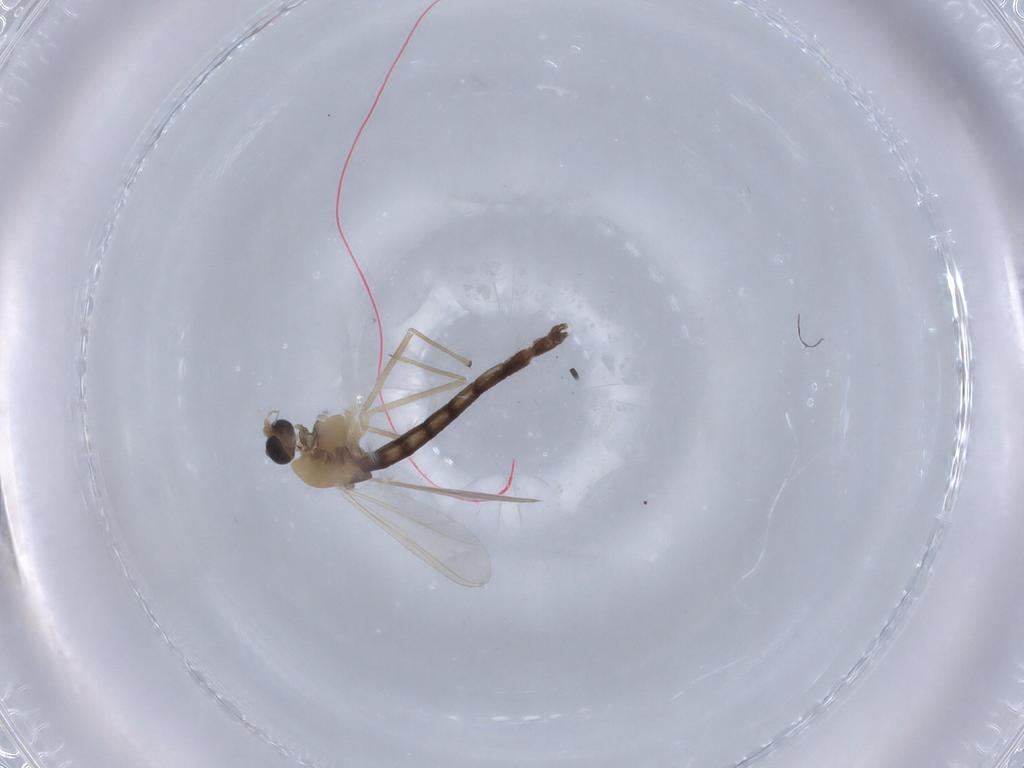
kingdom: Animalia
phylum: Arthropoda
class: Insecta
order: Diptera
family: Chironomidae
